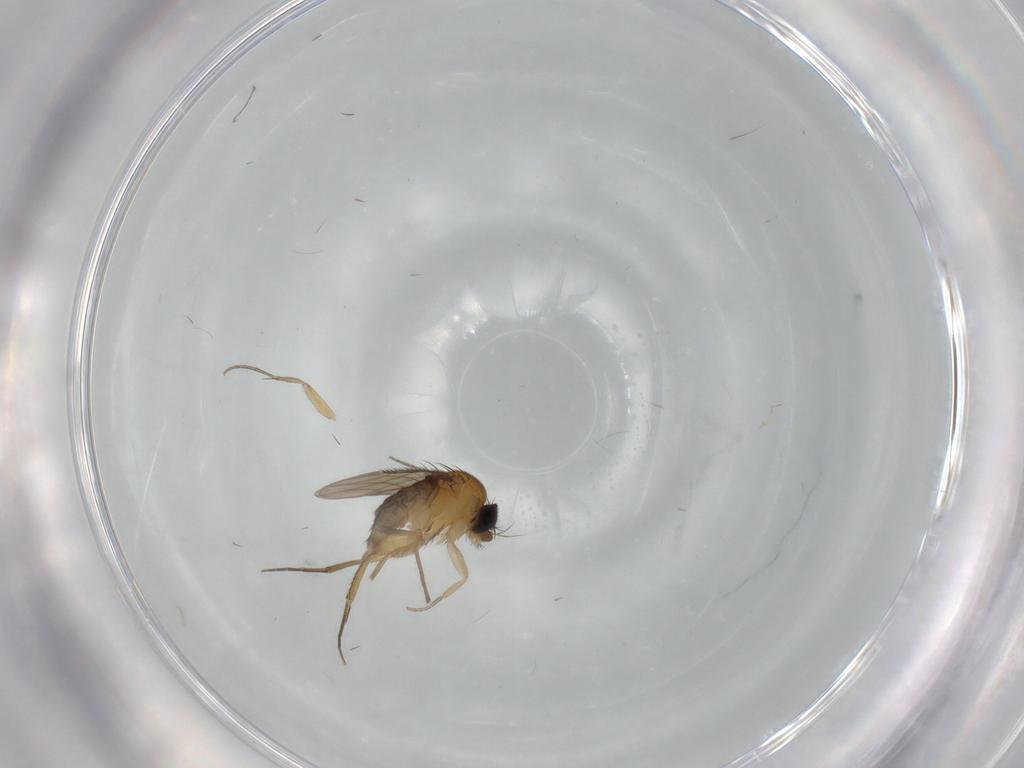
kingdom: Animalia
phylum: Arthropoda
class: Insecta
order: Diptera
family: Phoridae
